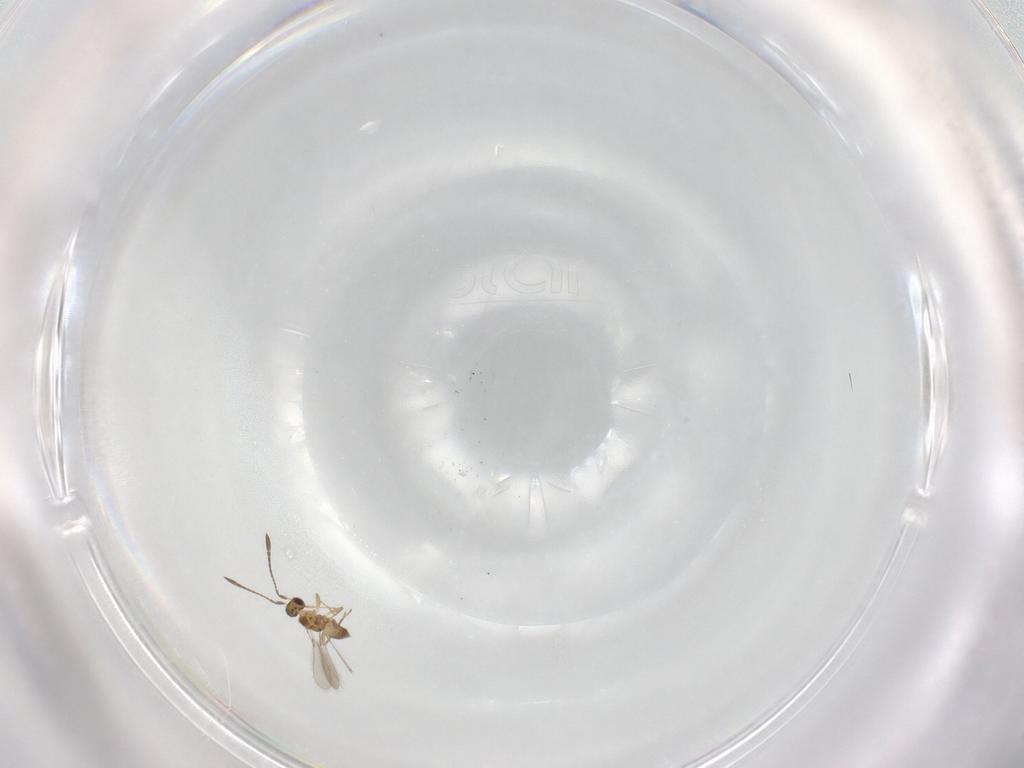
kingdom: Animalia
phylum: Arthropoda
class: Insecta
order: Hymenoptera
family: Mymaridae
